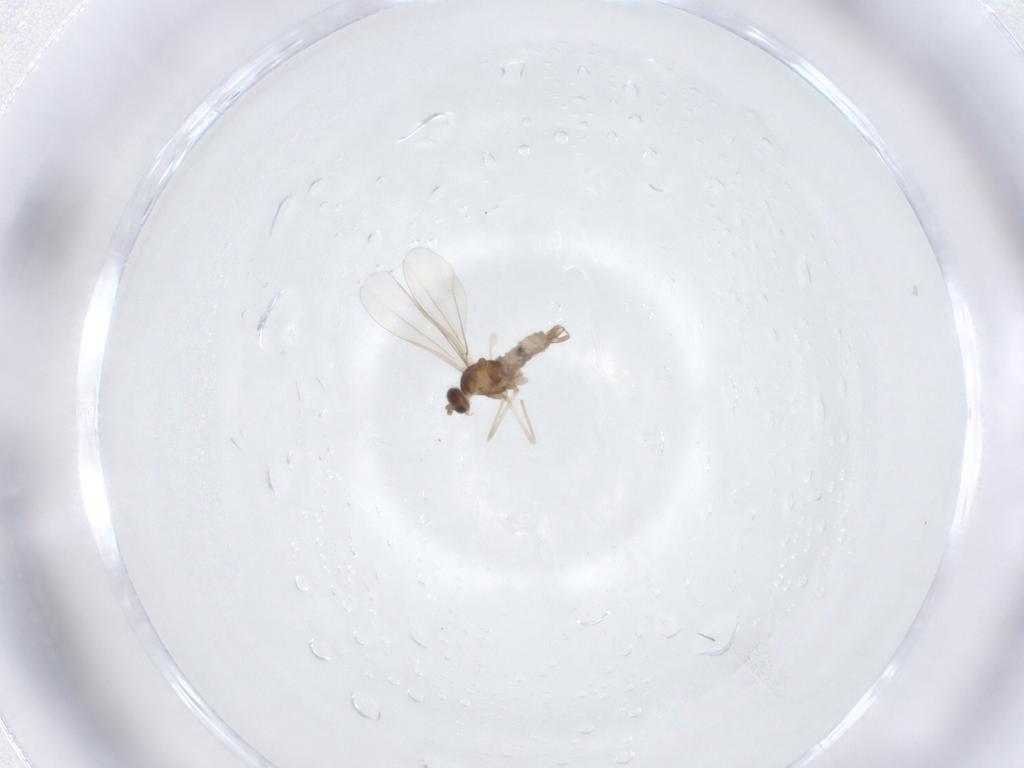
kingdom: Animalia
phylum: Arthropoda
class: Insecta
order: Diptera
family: Cecidomyiidae
